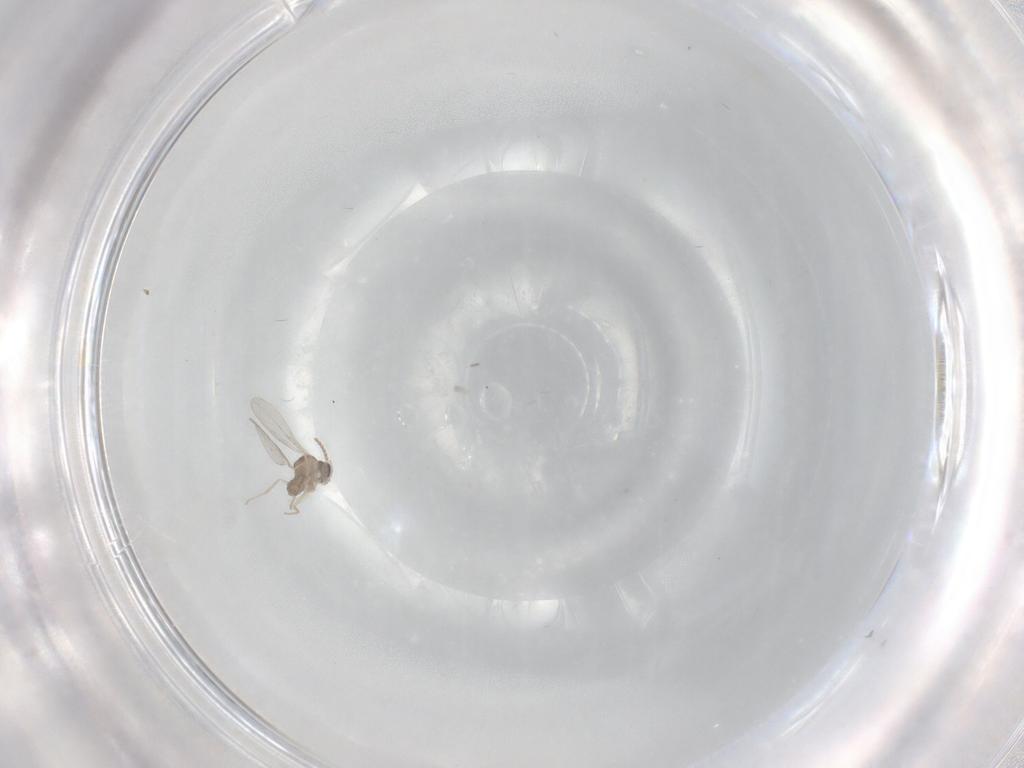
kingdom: Animalia
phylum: Arthropoda
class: Insecta
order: Diptera
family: Cecidomyiidae
